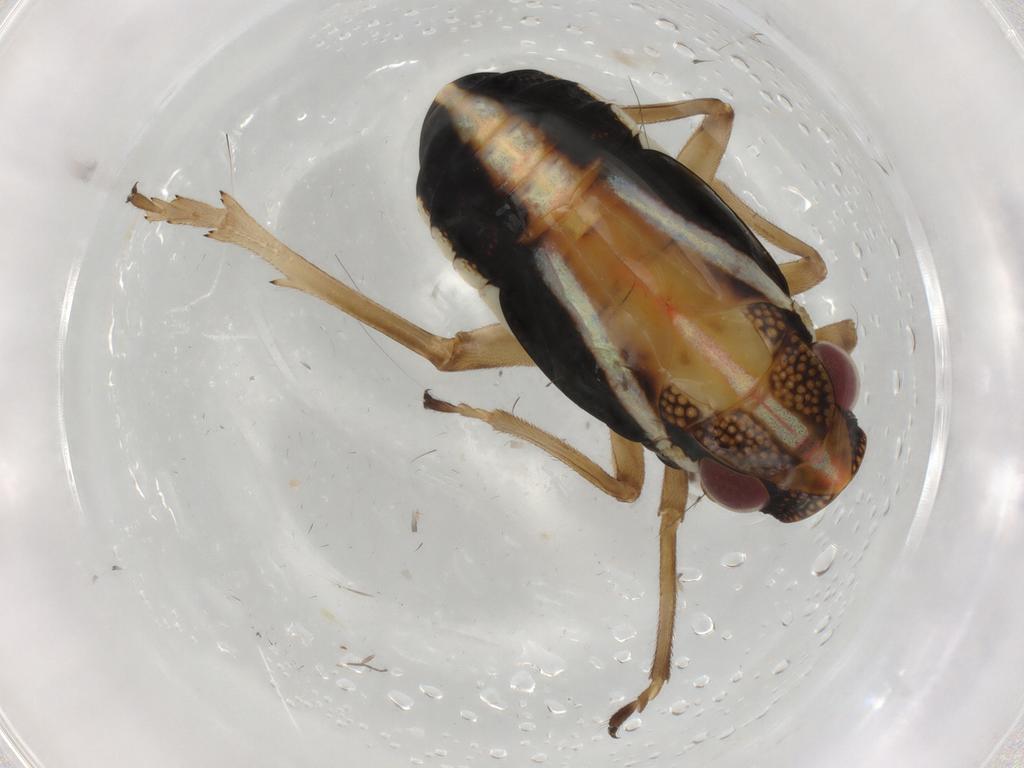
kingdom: Animalia
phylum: Arthropoda
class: Insecta
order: Hemiptera
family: Caliscelidae
